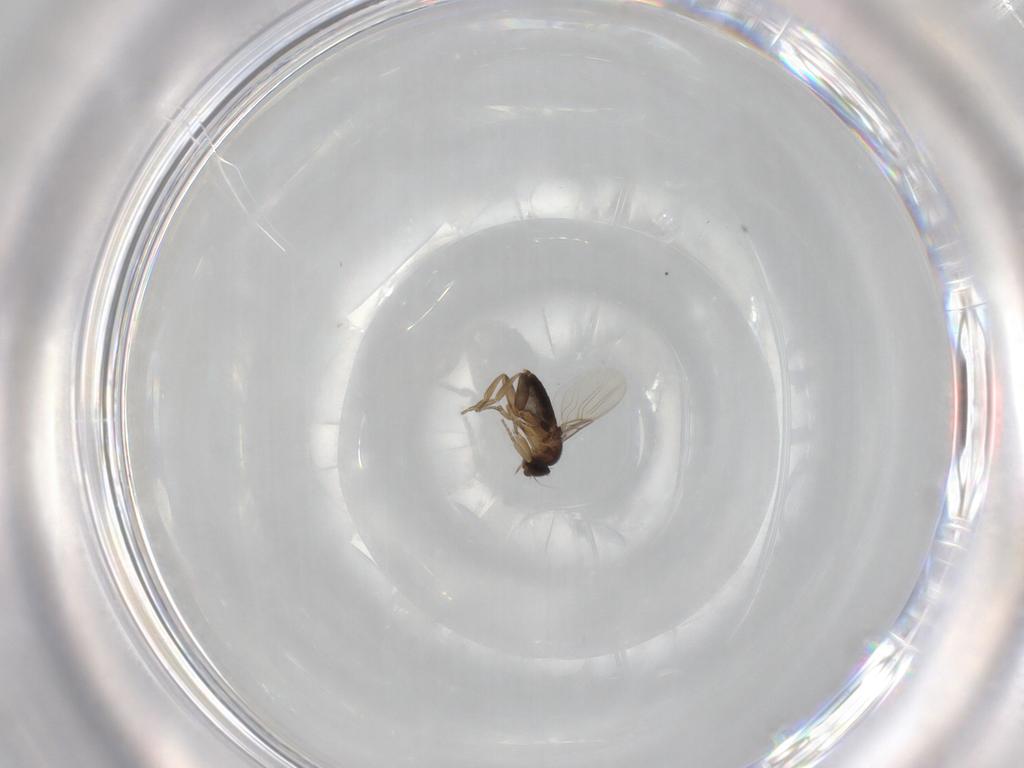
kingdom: Animalia
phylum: Arthropoda
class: Insecta
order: Diptera
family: Phoridae
